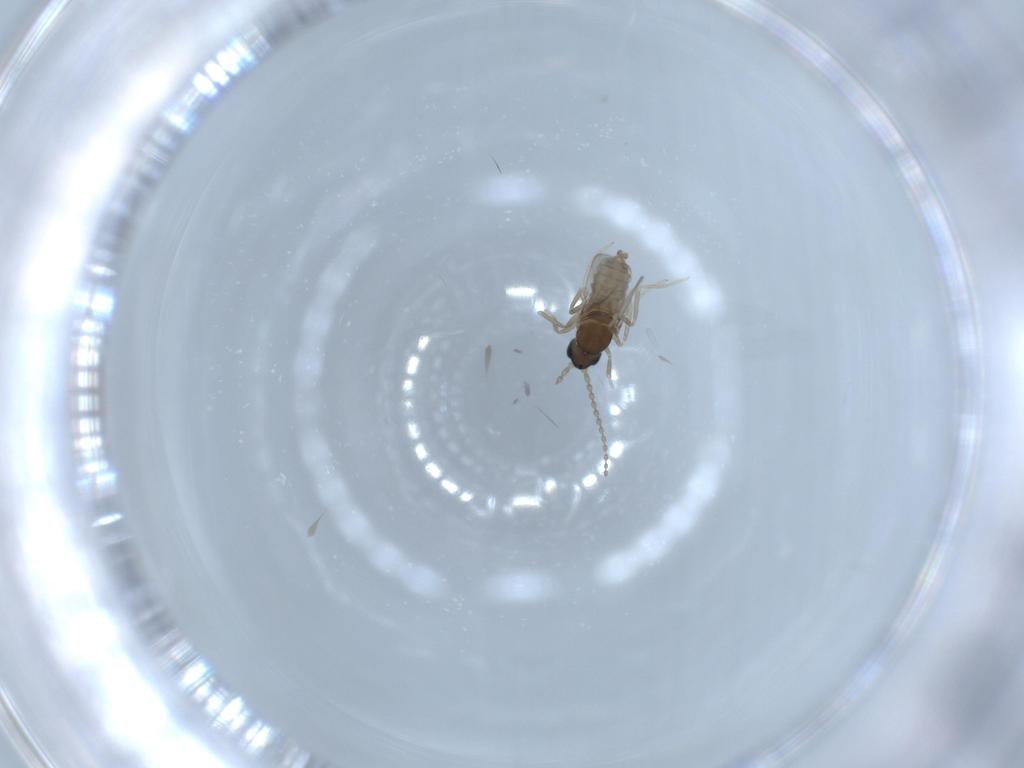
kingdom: Animalia
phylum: Arthropoda
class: Insecta
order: Diptera
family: Cecidomyiidae
